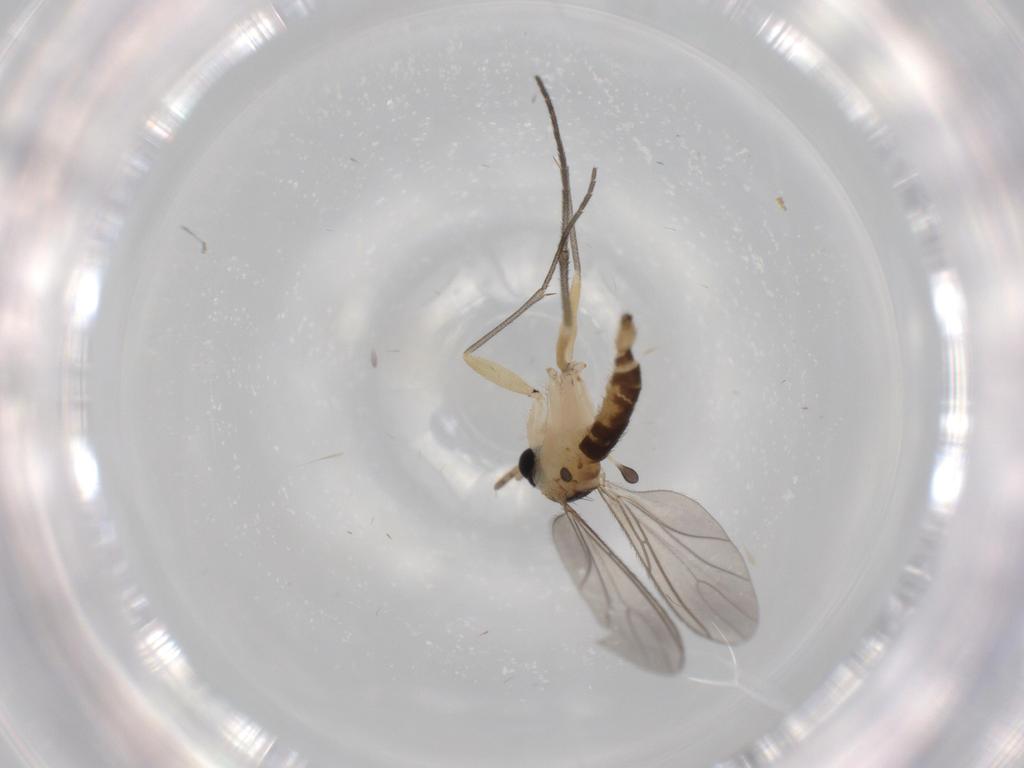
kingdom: Animalia
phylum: Arthropoda
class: Insecta
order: Diptera
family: Sciaridae
